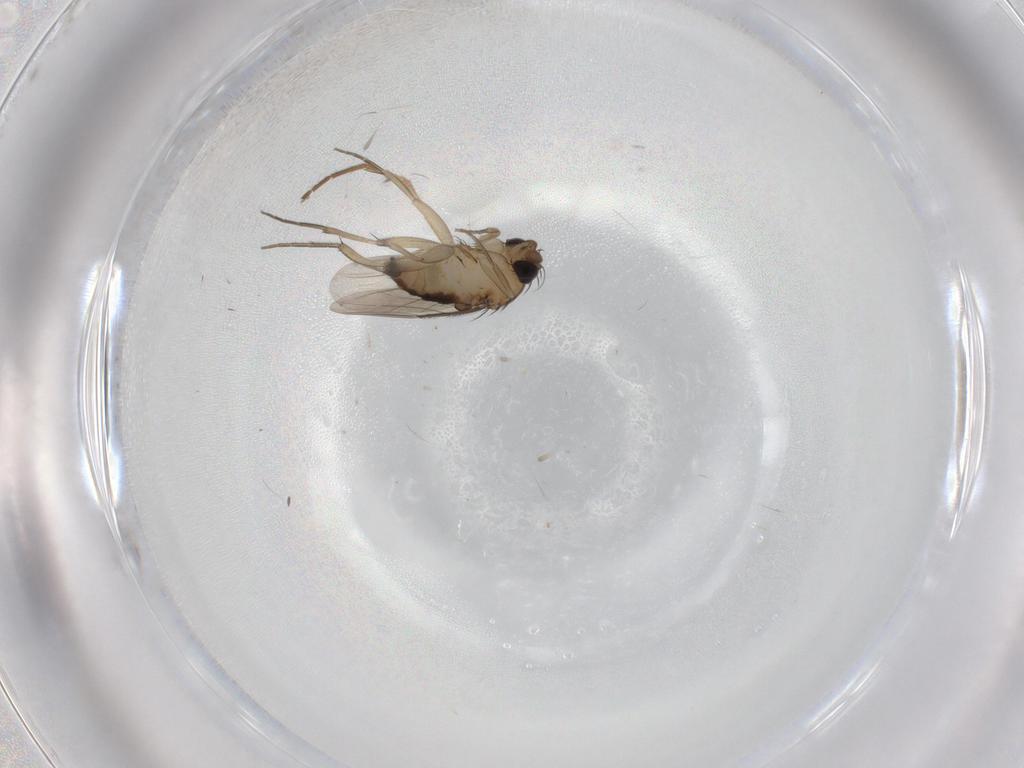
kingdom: Animalia
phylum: Arthropoda
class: Insecta
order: Diptera
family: Phoridae
